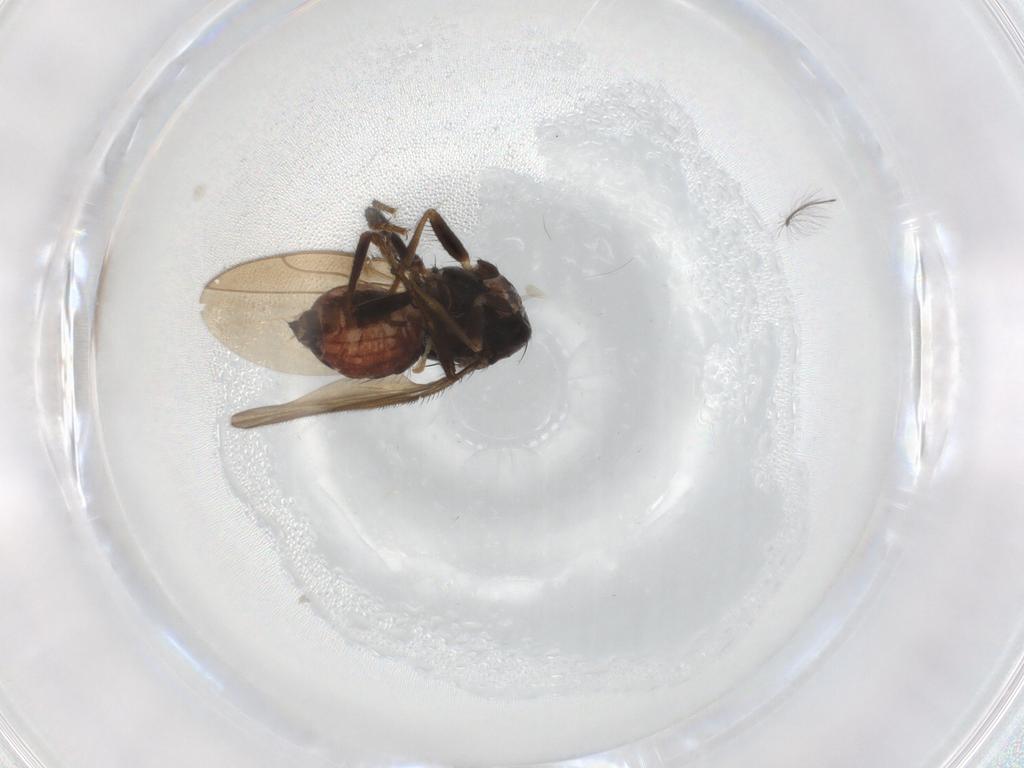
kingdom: Animalia
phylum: Arthropoda
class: Insecta
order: Diptera
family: Sphaeroceridae
